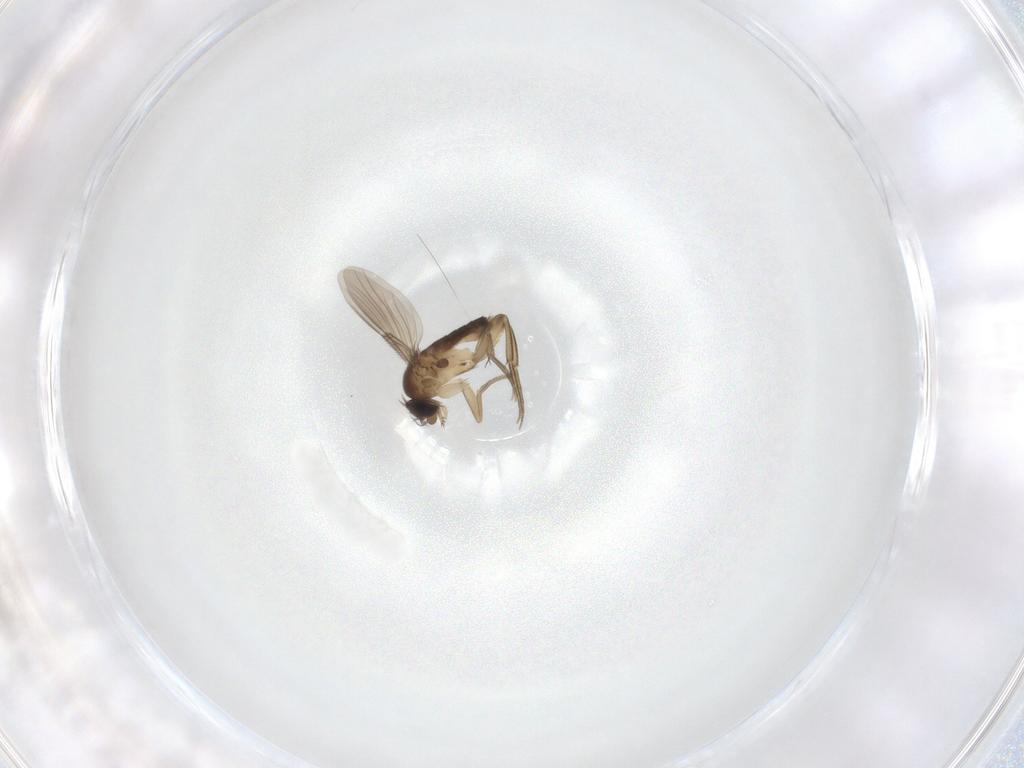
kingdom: Animalia
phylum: Arthropoda
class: Insecta
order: Diptera
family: Phoridae
